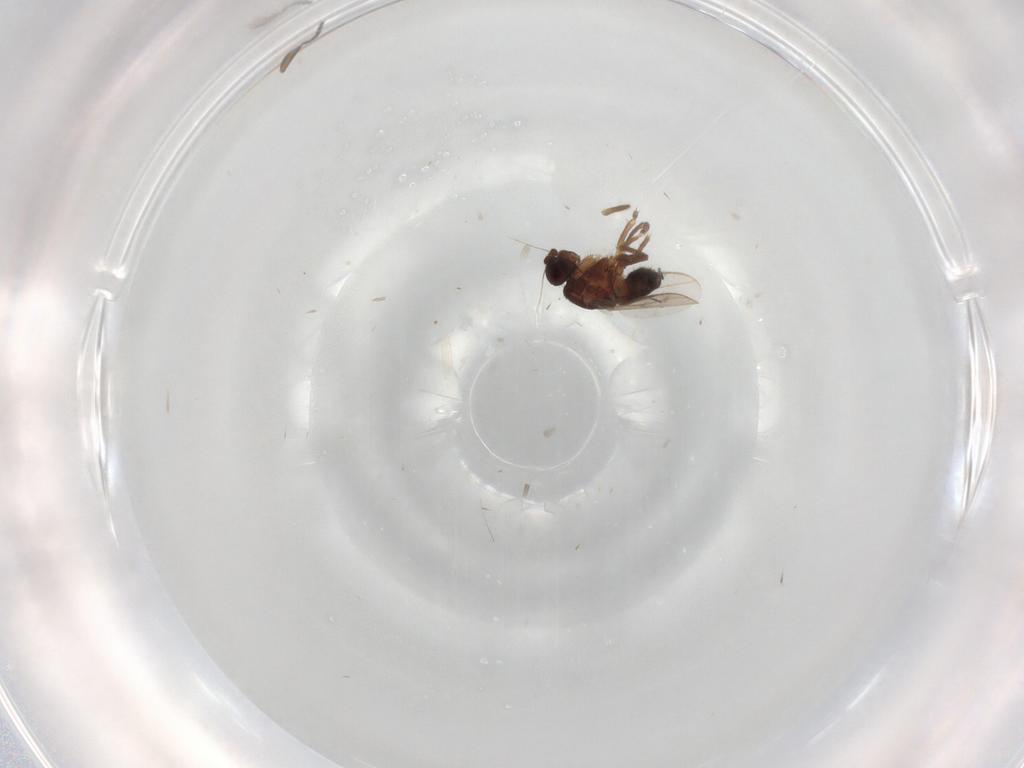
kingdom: Animalia
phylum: Arthropoda
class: Insecta
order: Diptera
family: Sphaeroceridae
